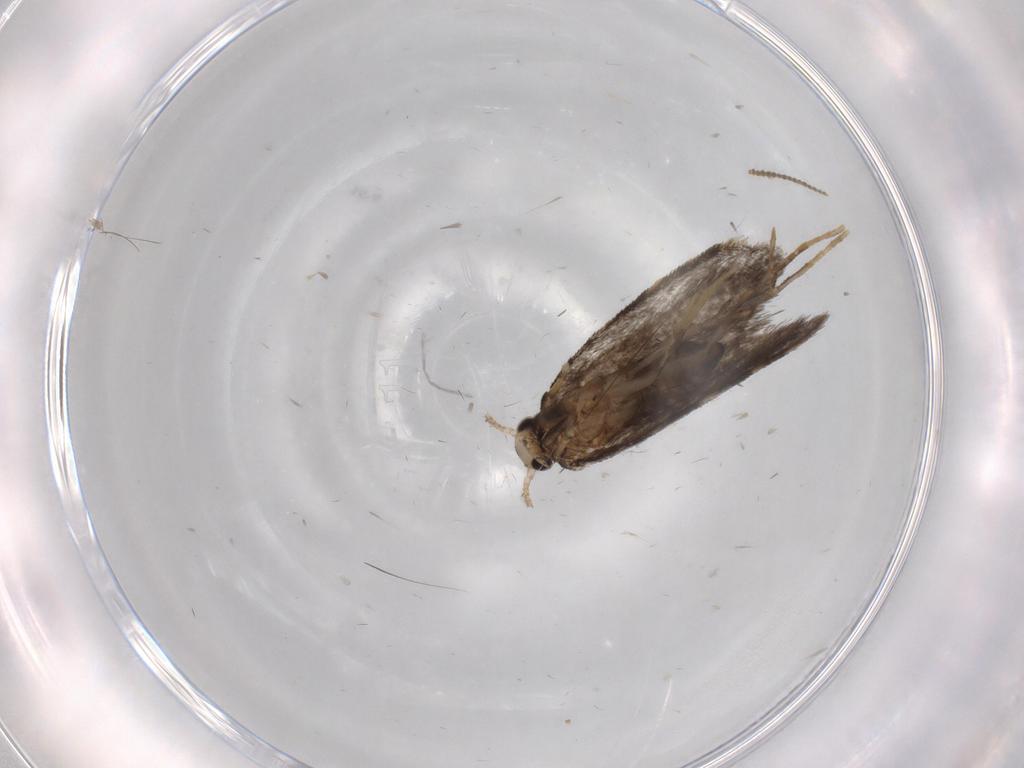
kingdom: Animalia
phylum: Arthropoda
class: Insecta
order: Lepidoptera
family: Psychidae
